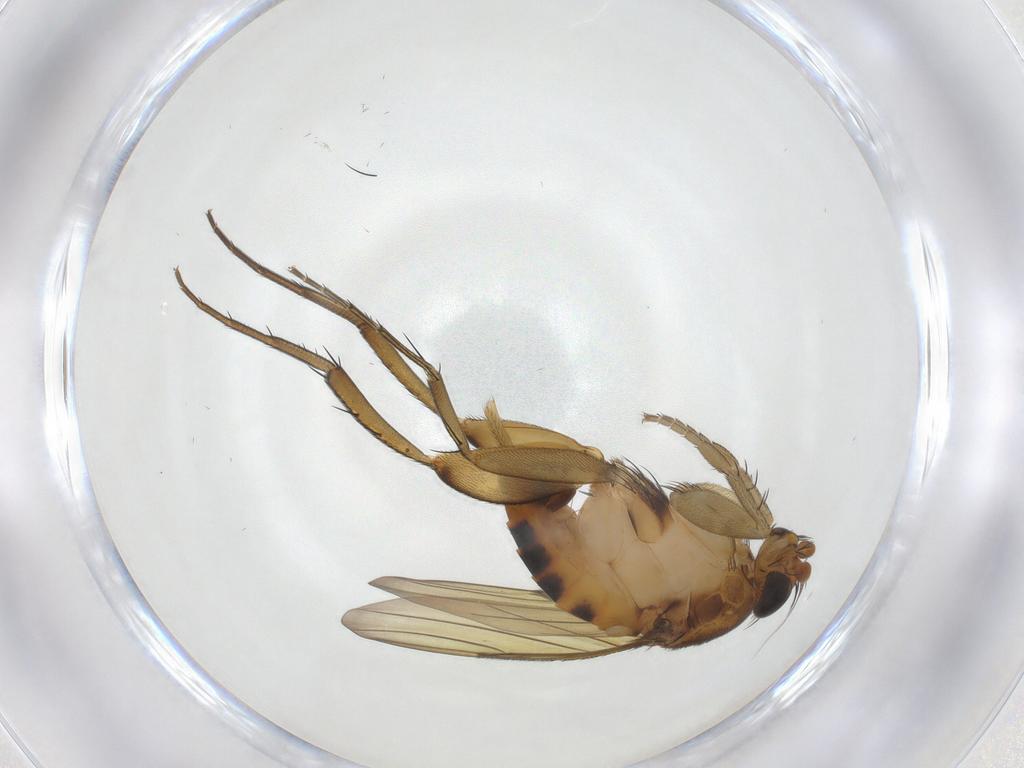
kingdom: Animalia
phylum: Arthropoda
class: Insecta
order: Diptera
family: Phoridae
